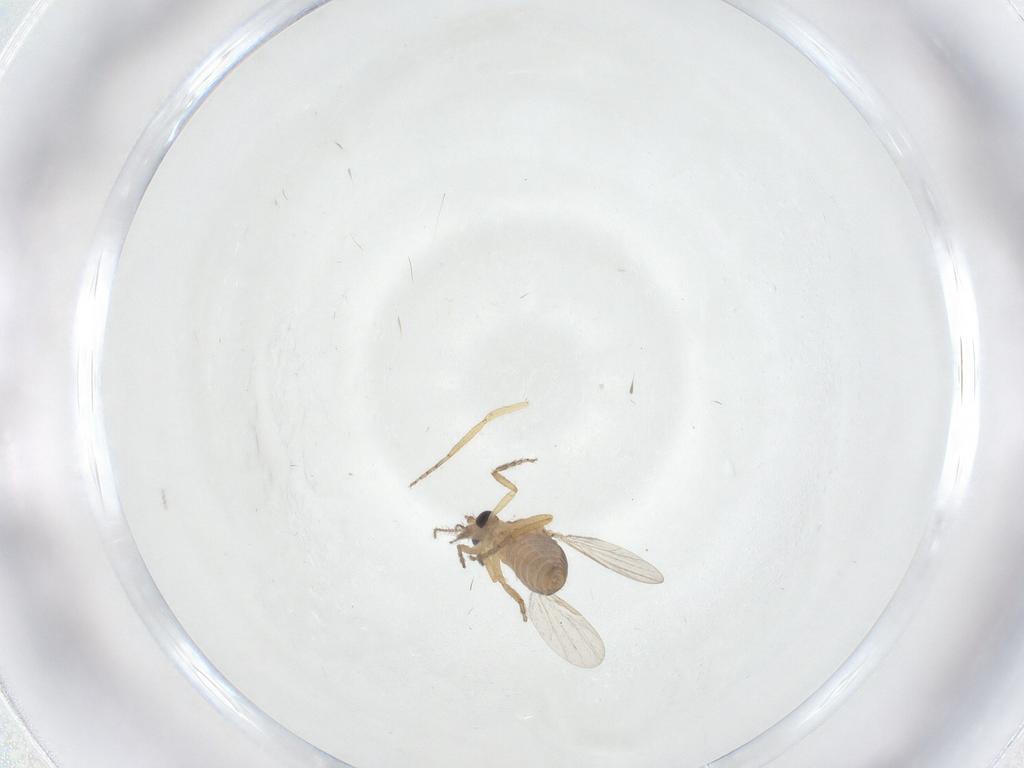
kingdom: Animalia
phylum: Arthropoda
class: Insecta
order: Diptera
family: Ceratopogonidae
